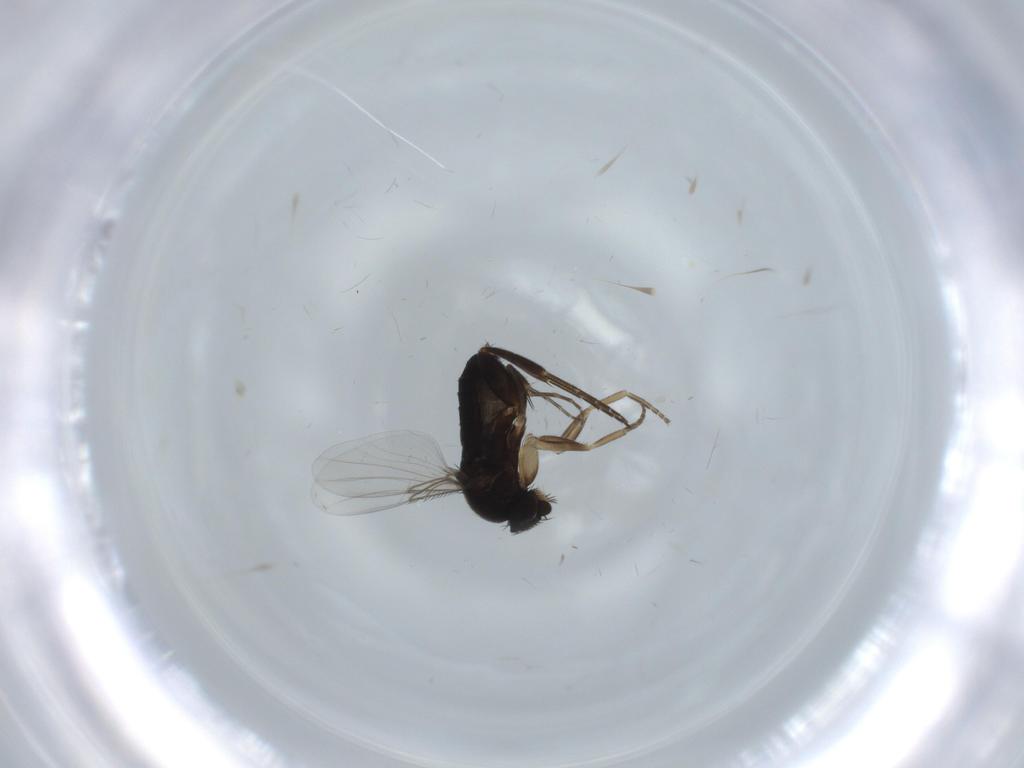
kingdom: Animalia
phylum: Arthropoda
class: Insecta
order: Diptera
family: Phoridae
